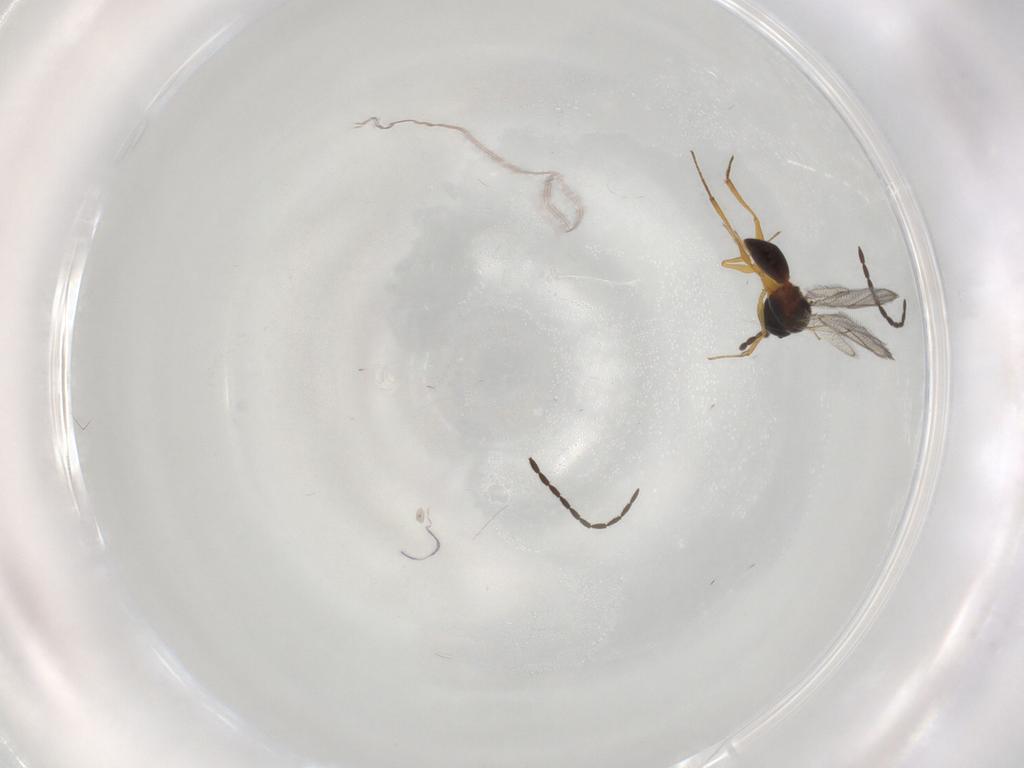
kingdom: Animalia
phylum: Arthropoda
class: Insecta
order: Hymenoptera
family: Figitidae
